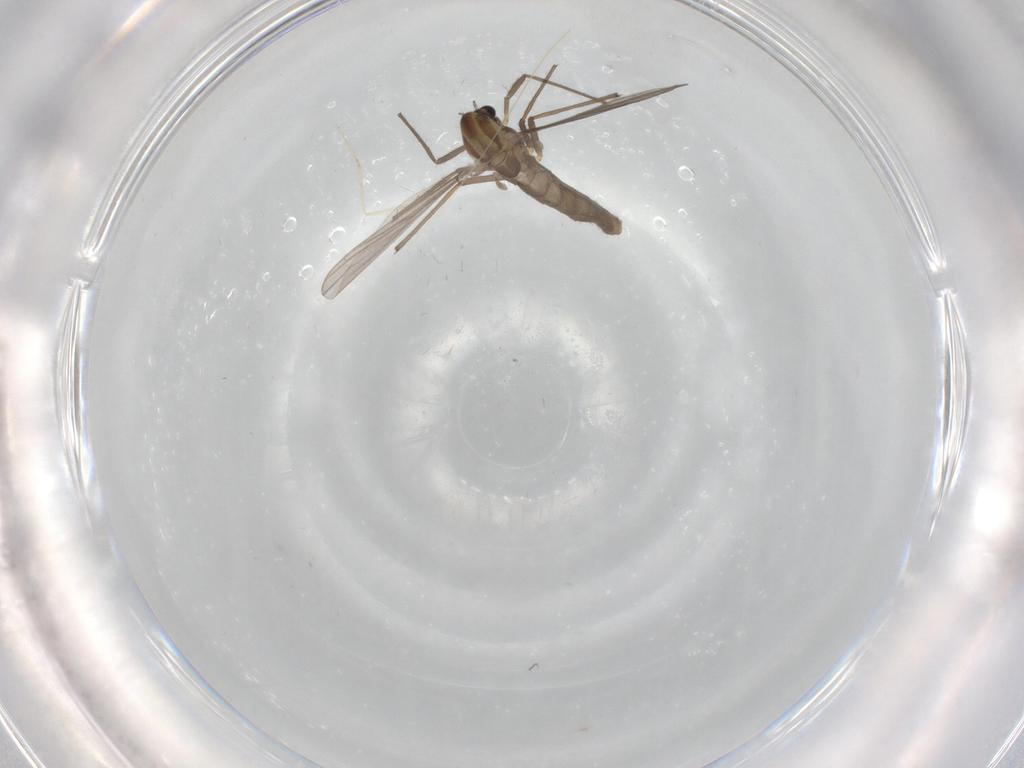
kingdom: Animalia
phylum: Arthropoda
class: Insecta
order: Diptera
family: Chironomidae
